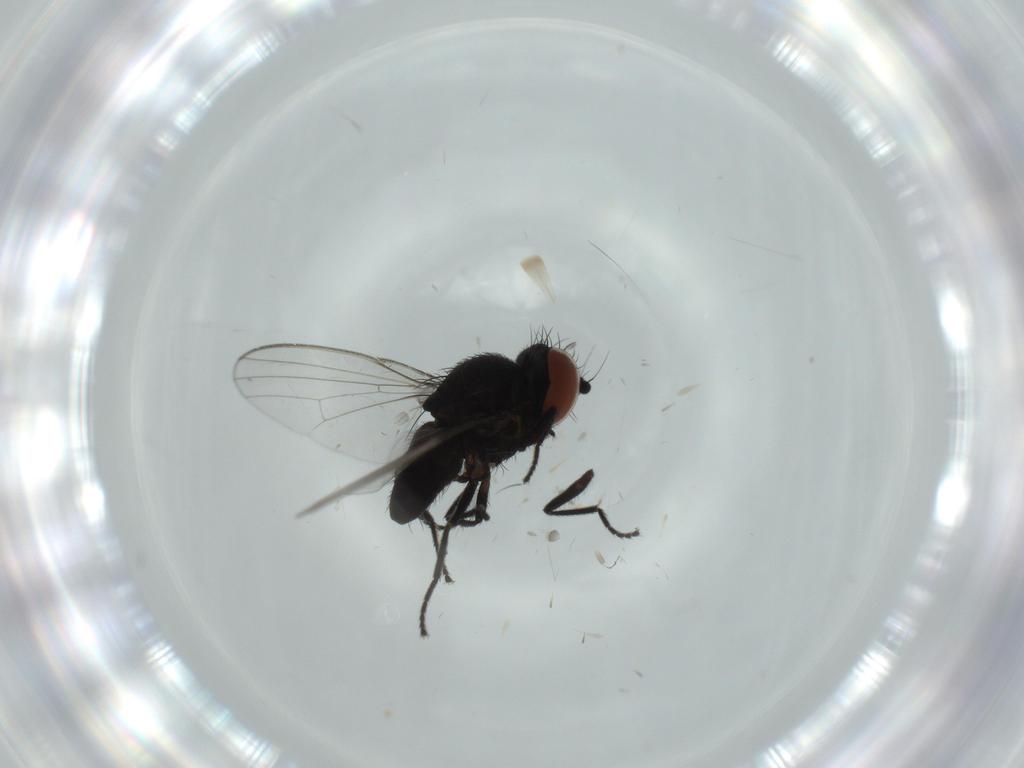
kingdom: Animalia
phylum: Arthropoda
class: Insecta
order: Diptera
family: Milichiidae
